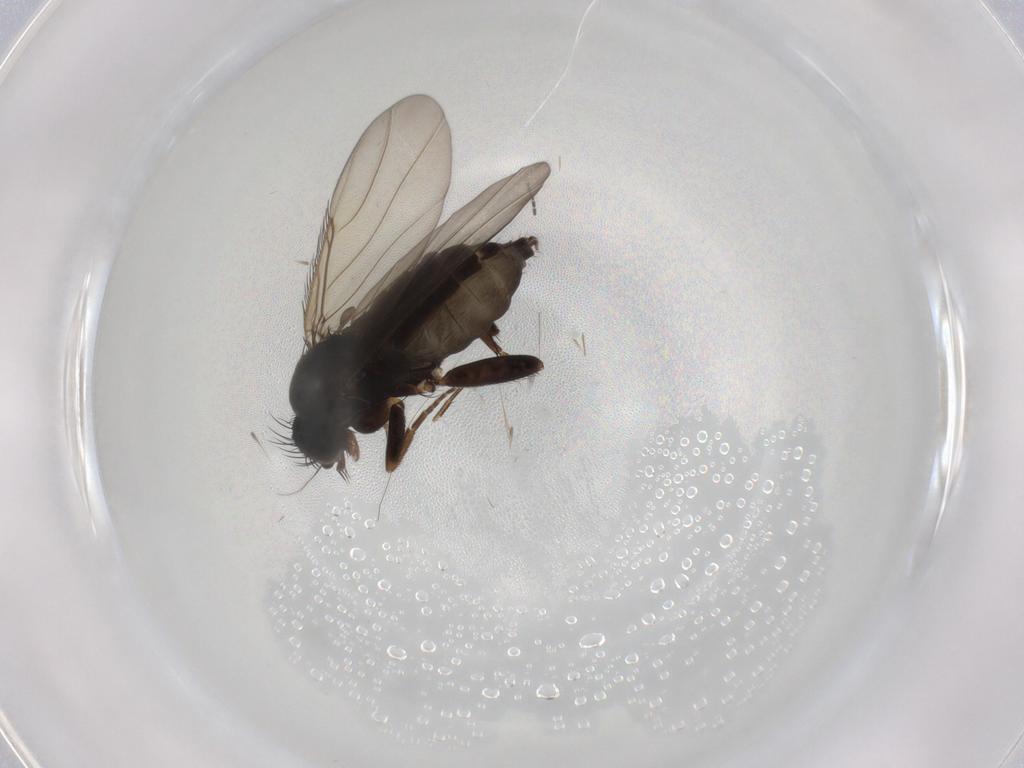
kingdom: Animalia
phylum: Arthropoda
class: Insecta
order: Diptera
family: Phoridae
